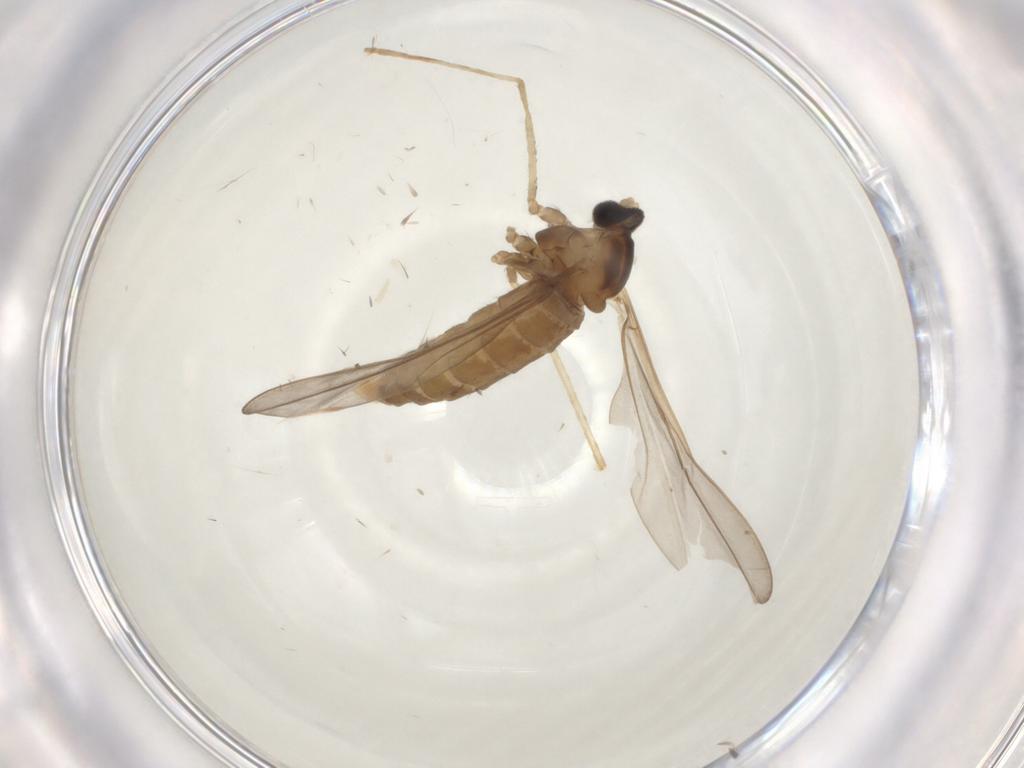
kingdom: Animalia
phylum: Arthropoda
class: Insecta
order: Diptera
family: Cecidomyiidae
